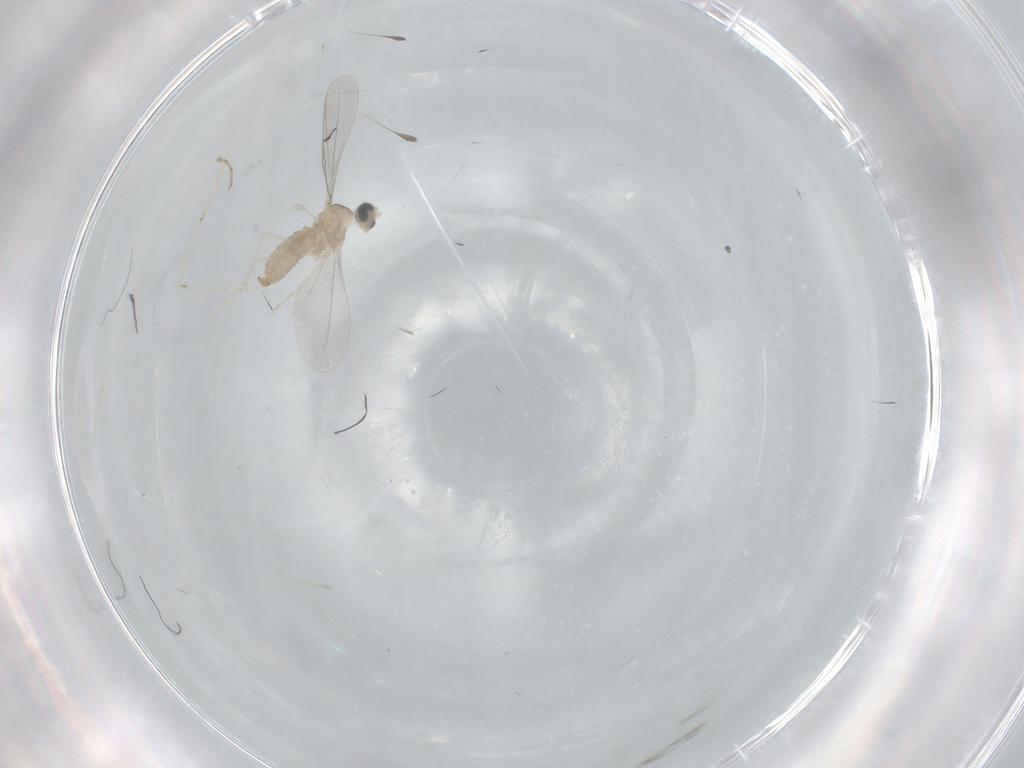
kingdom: Animalia
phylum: Arthropoda
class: Insecta
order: Diptera
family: Cecidomyiidae
